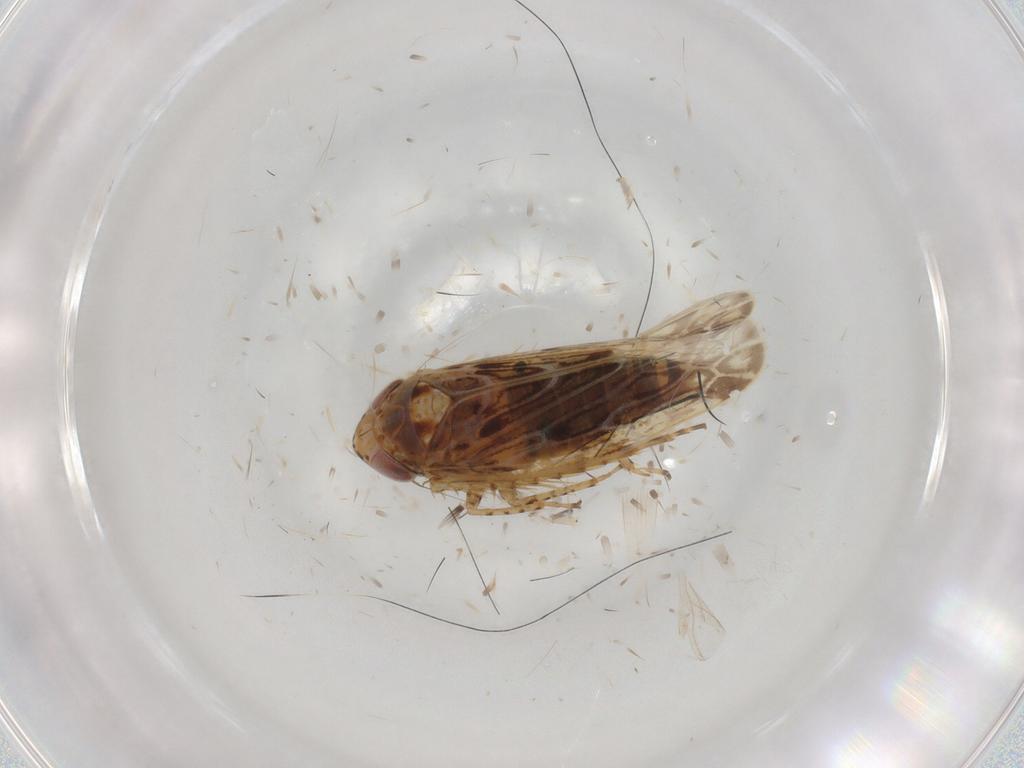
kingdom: Animalia
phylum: Arthropoda
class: Insecta
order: Hemiptera
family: Cicadellidae
